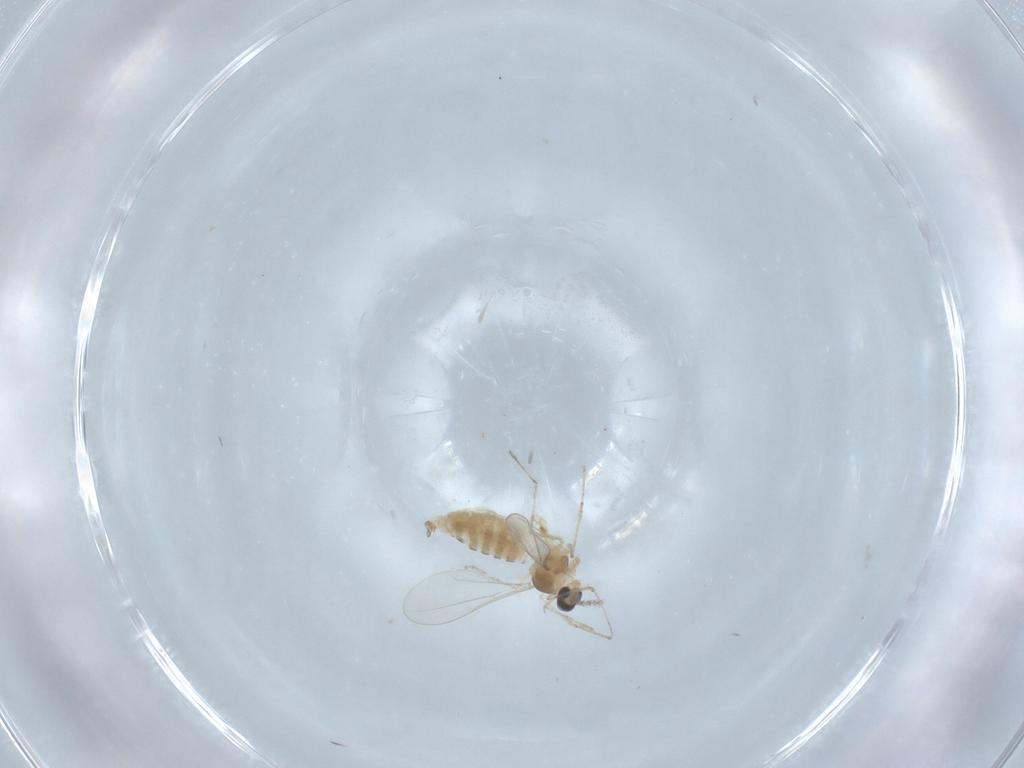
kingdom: Animalia
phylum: Arthropoda
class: Insecta
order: Diptera
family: Cecidomyiidae
